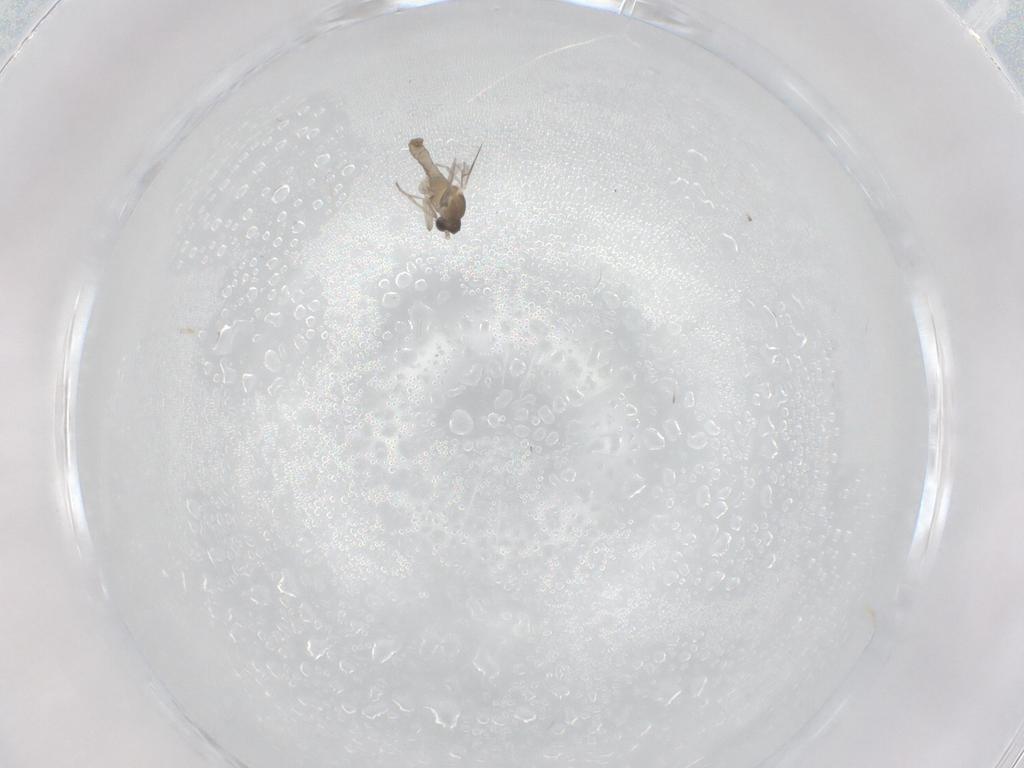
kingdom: Animalia
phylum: Arthropoda
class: Insecta
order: Diptera
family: Cecidomyiidae
